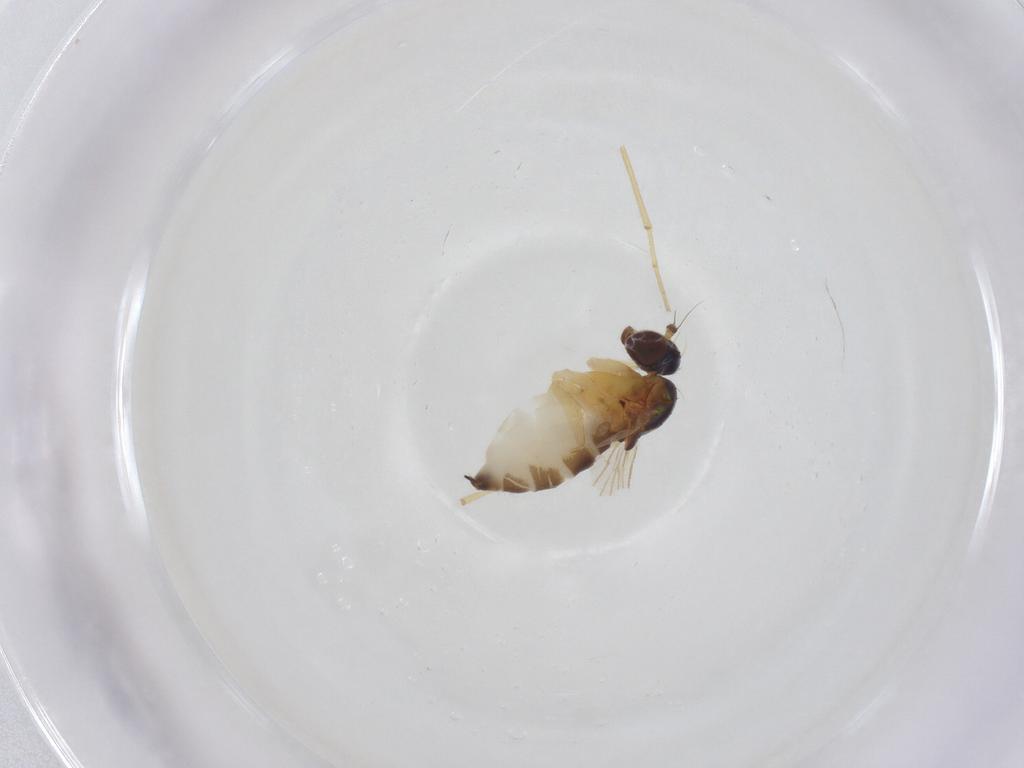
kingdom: Animalia
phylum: Arthropoda
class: Insecta
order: Diptera
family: Dolichopodidae
